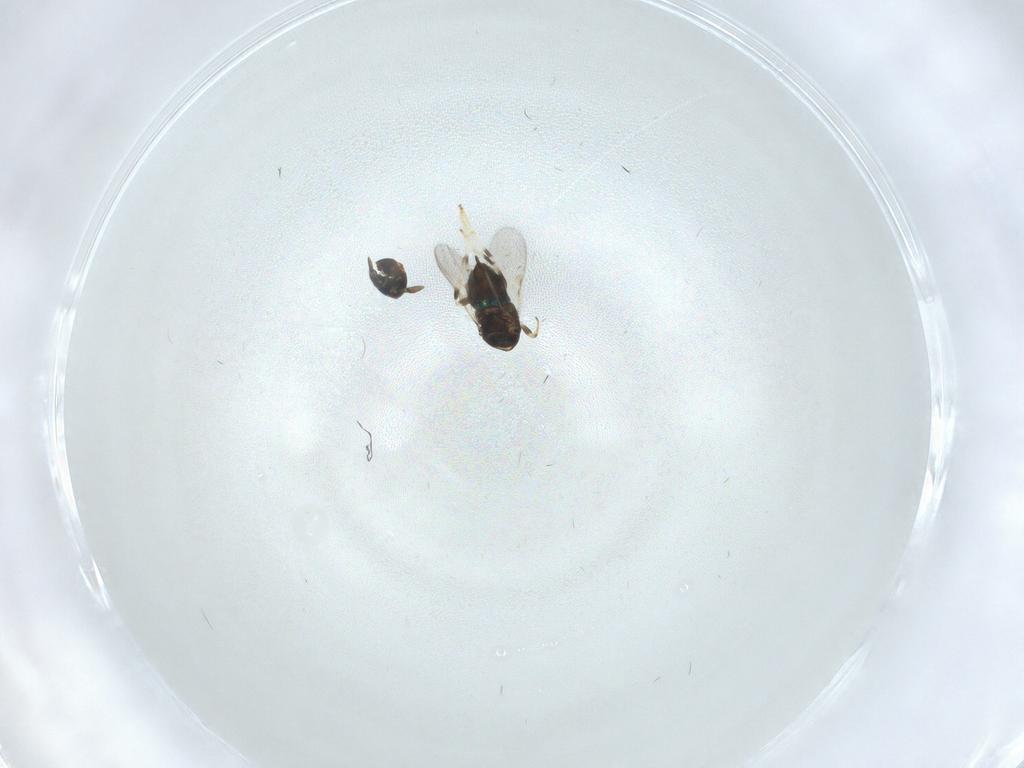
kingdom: Animalia
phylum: Arthropoda
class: Insecta
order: Hymenoptera
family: Encyrtidae
